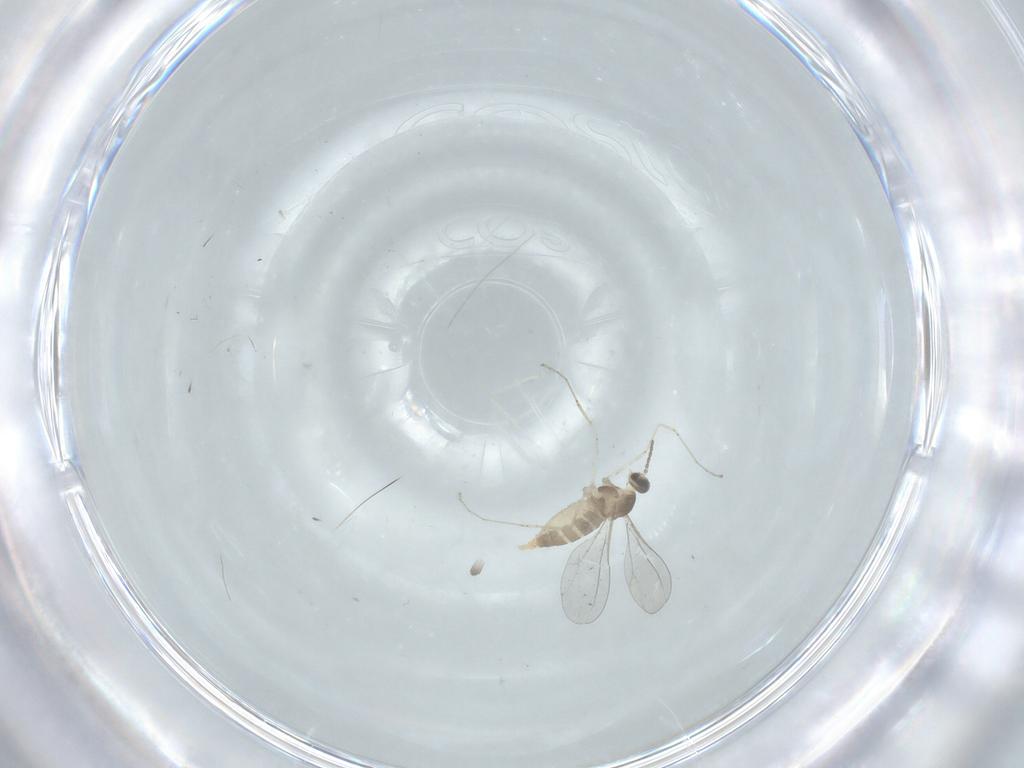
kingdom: Animalia
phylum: Arthropoda
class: Insecta
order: Diptera
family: Cecidomyiidae
